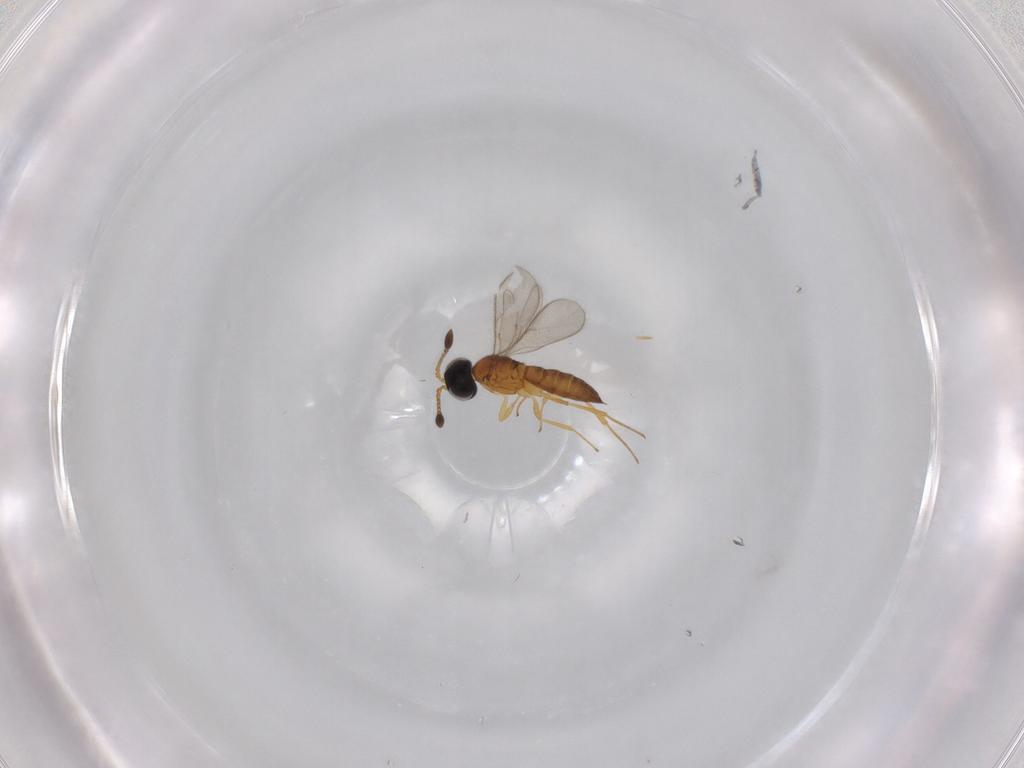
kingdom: Animalia
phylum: Arthropoda
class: Insecta
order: Hymenoptera
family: Scelionidae
